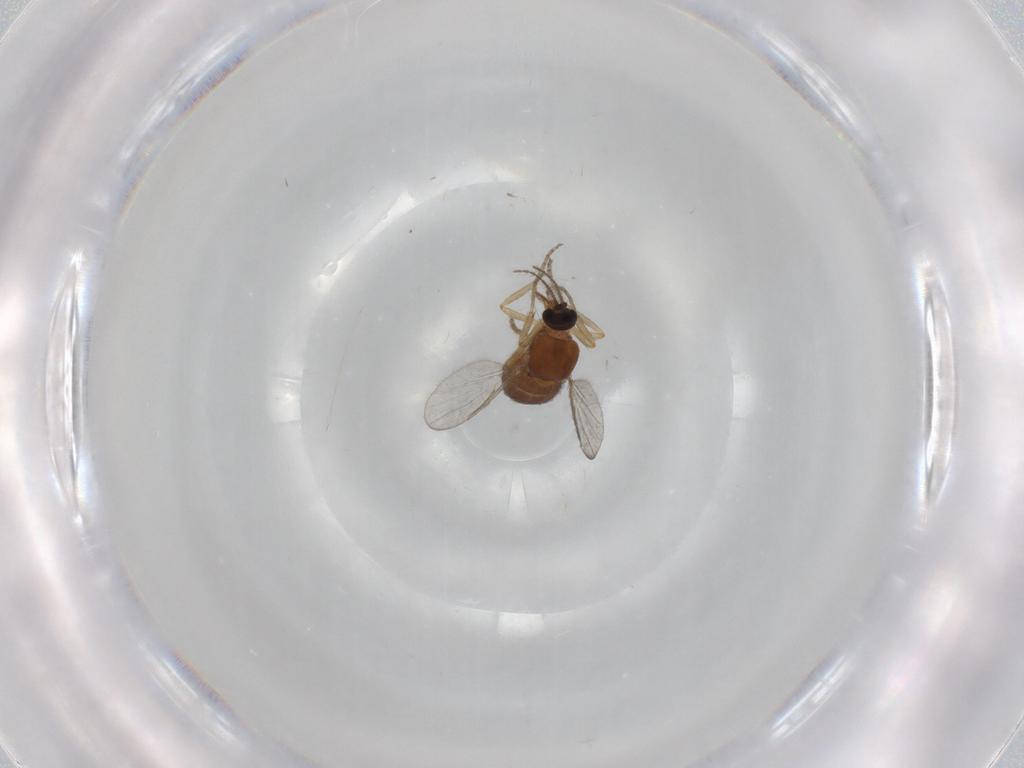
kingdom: Animalia
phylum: Arthropoda
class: Insecta
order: Diptera
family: Ceratopogonidae
